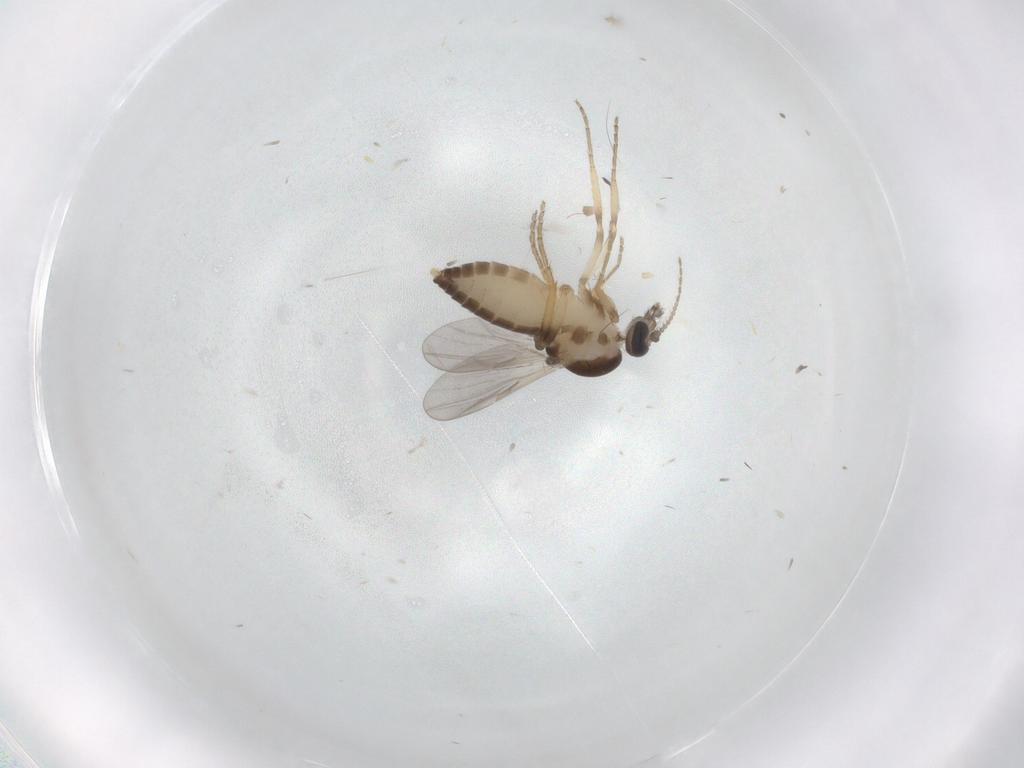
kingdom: Animalia
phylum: Arthropoda
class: Insecta
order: Diptera
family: Ceratopogonidae
